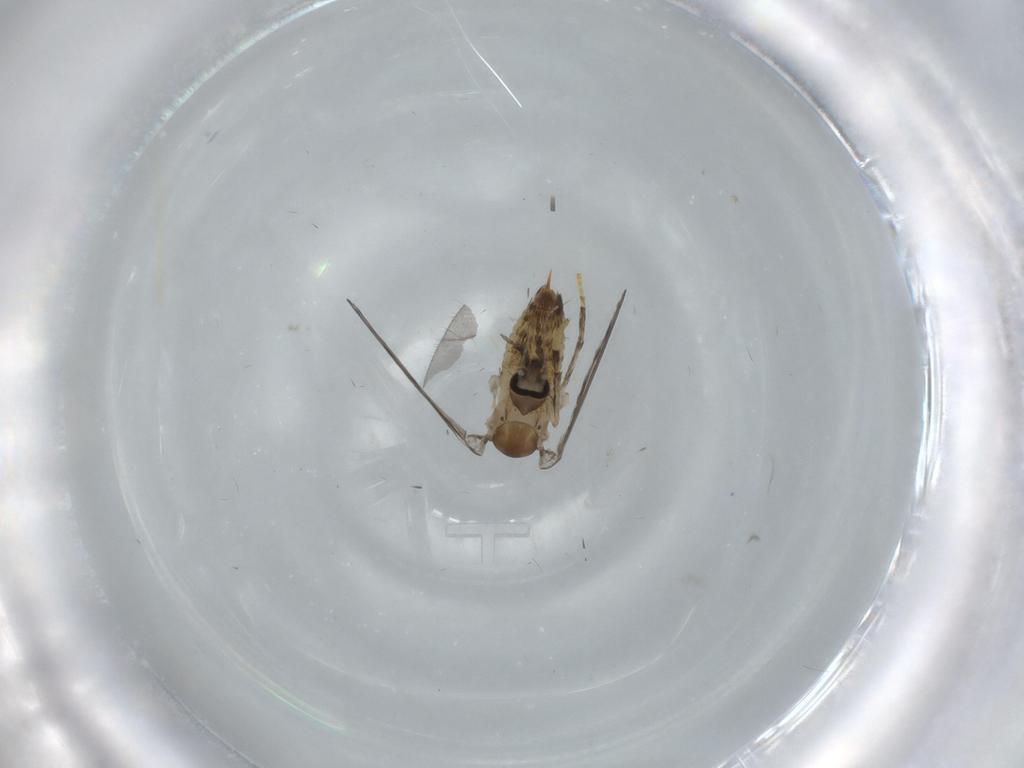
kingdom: Animalia
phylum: Arthropoda
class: Insecta
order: Diptera
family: Psychodidae
